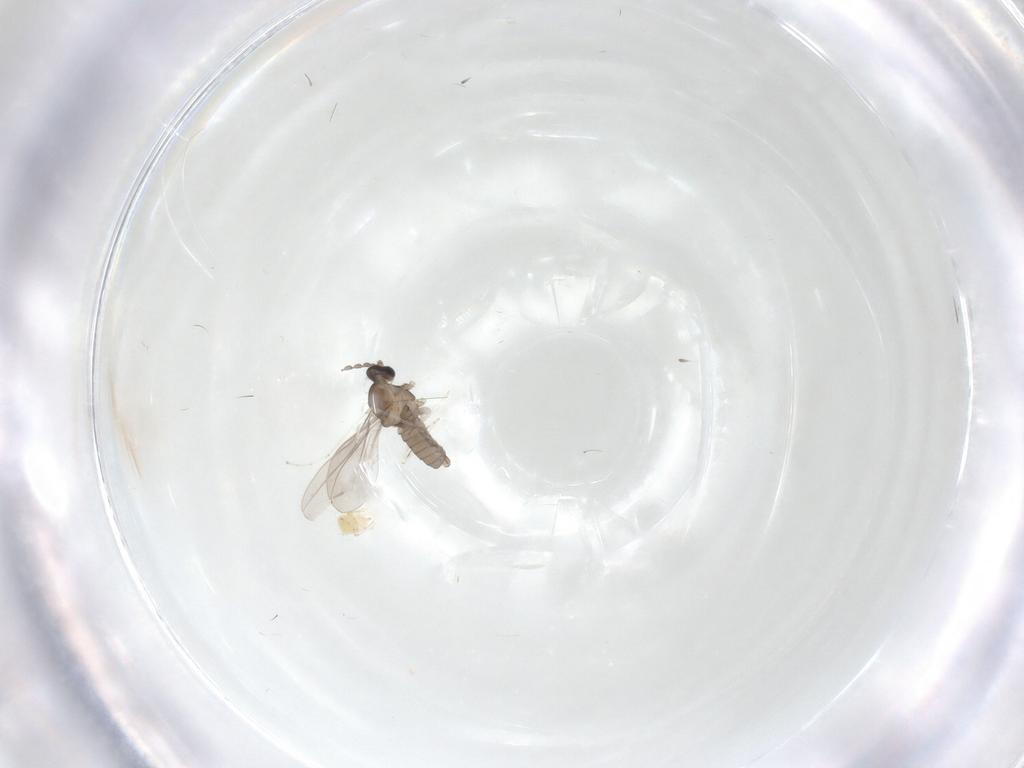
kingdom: Animalia
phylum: Arthropoda
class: Insecta
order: Diptera
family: Cecidomyiidae
